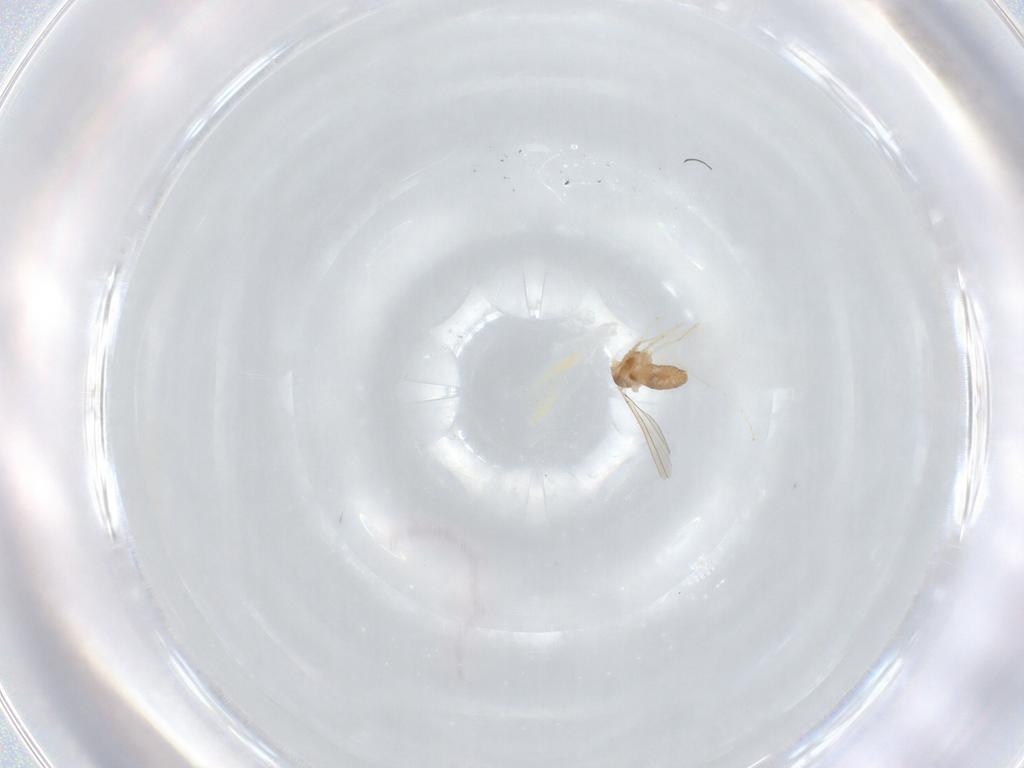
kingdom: Animalia
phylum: Arthropoda
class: Insecta
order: Diptera
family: Cecidomyiidae
